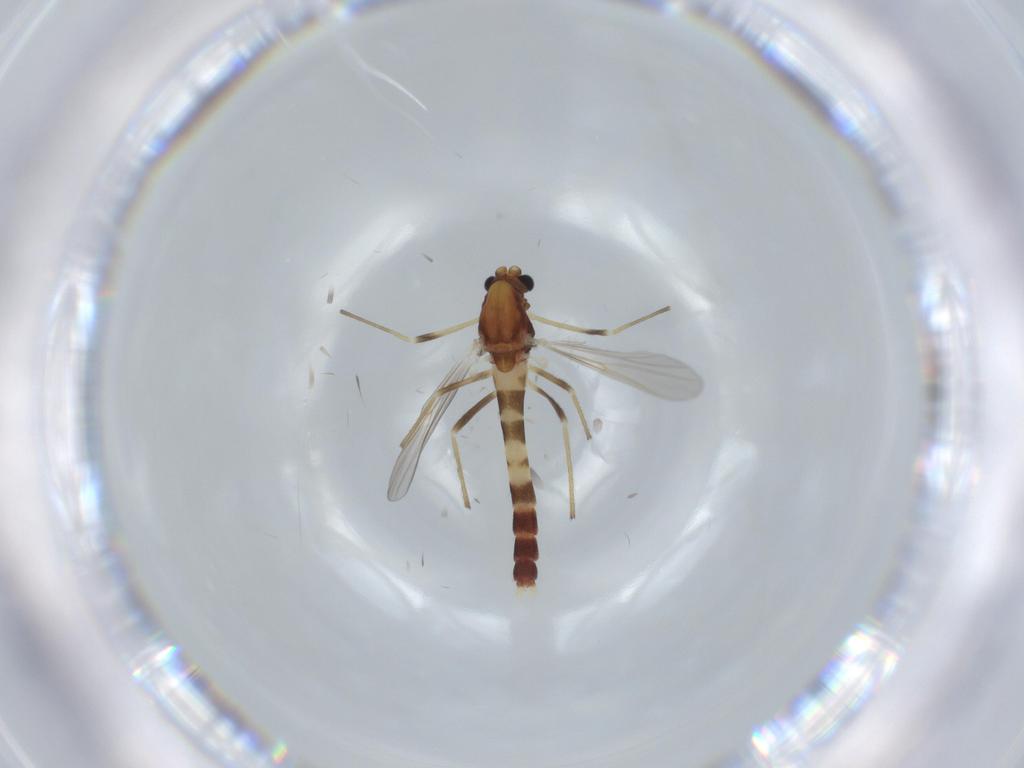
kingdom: Animalia
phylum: Arthropoda
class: Insecta
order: Diptera
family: Chironomidae
